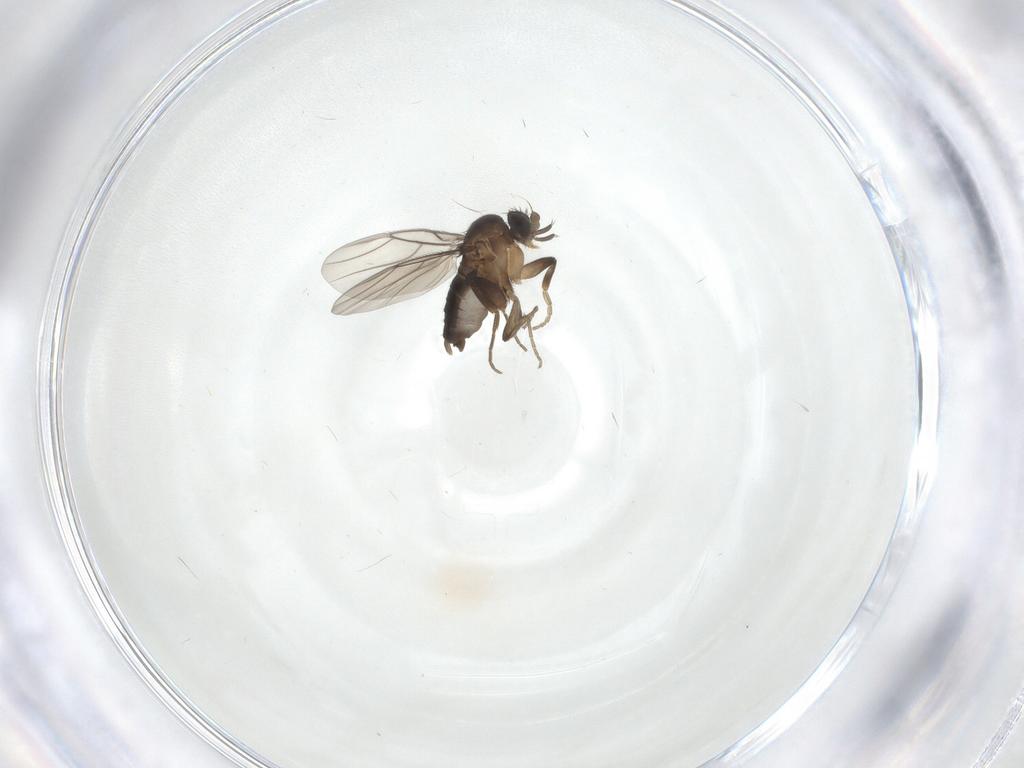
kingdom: Animalia
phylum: Arthropoda
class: Insecta
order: Diptera
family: Phoridae
